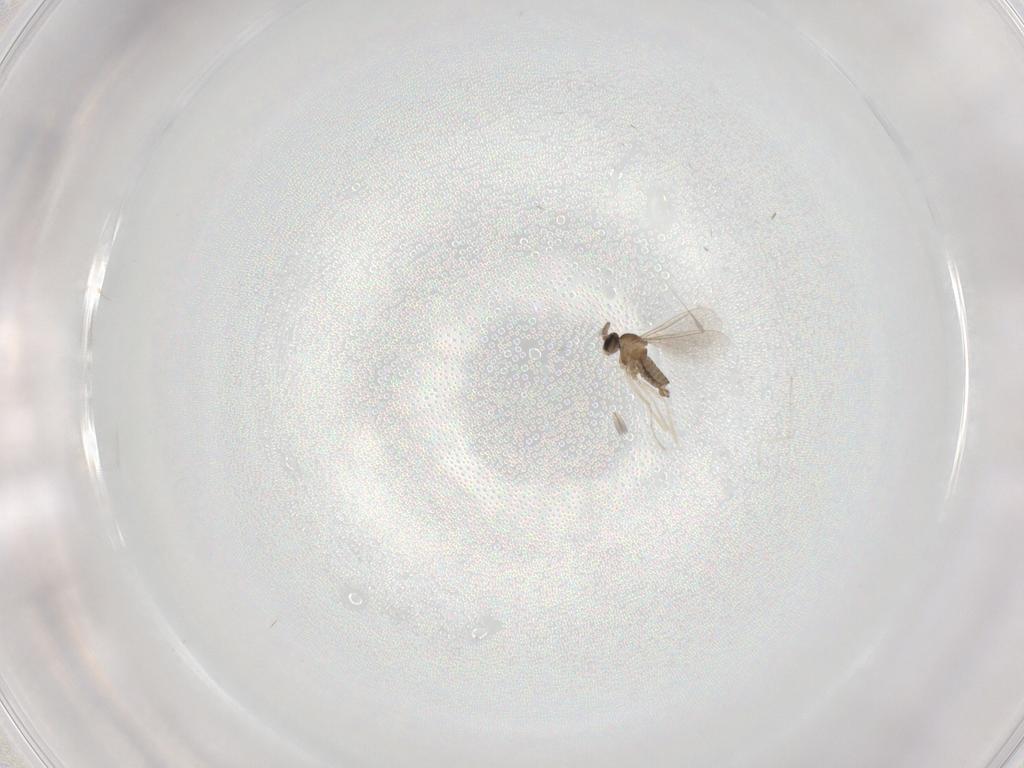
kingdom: Animalia
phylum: Arthropoda
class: Insecta
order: Diptera
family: Cecidomyiidae
